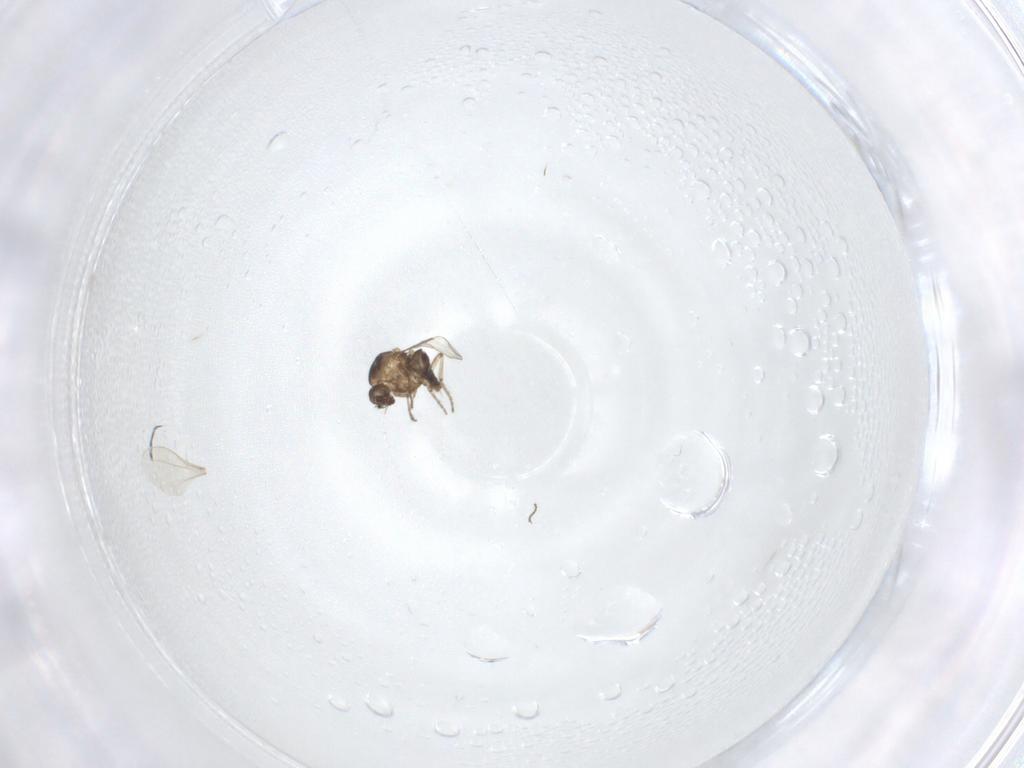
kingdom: Animalia
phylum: Arthropoda
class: Insecta
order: Diptera
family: Ceratopogonidae
